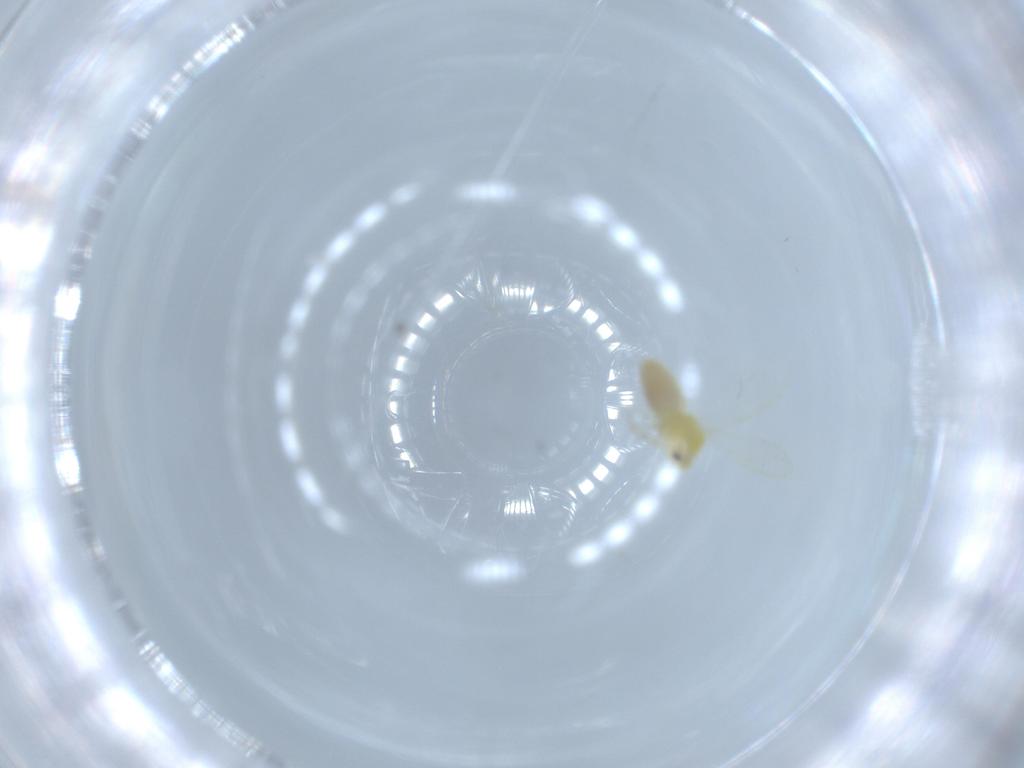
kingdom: Animalia
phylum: Arthropoda
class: Insecta
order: Hemiptera
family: Aleyrodidae
